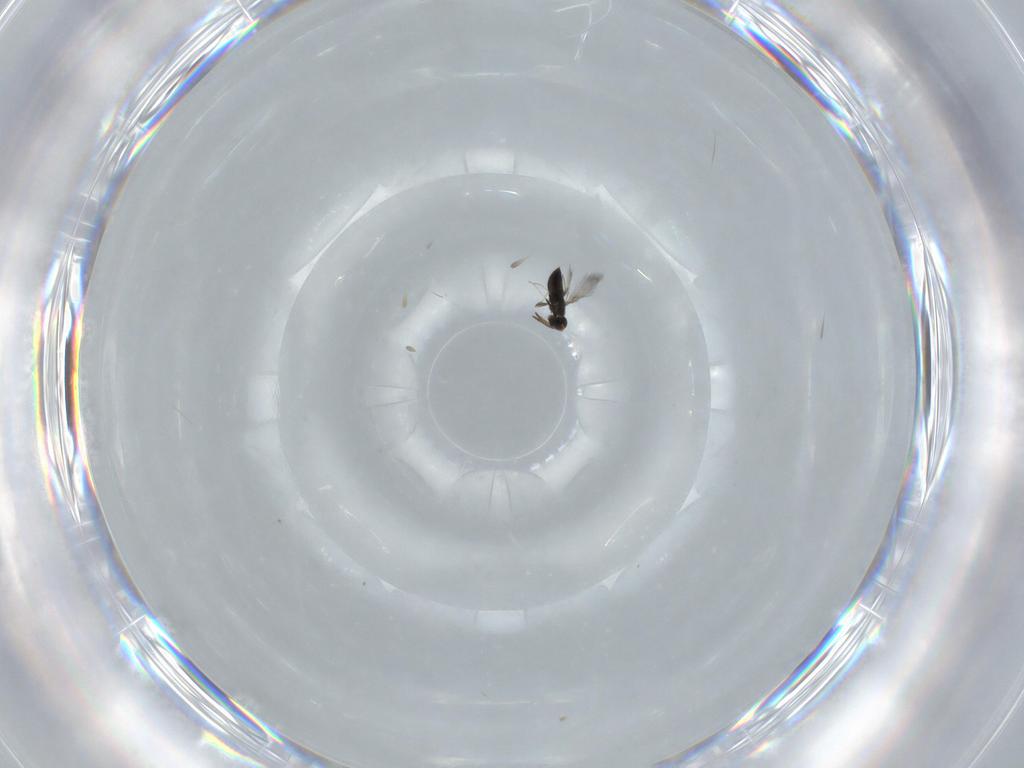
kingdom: Animalia
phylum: Arthropoda
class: Insecta
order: Hymenoptera
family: Signiphoridae
